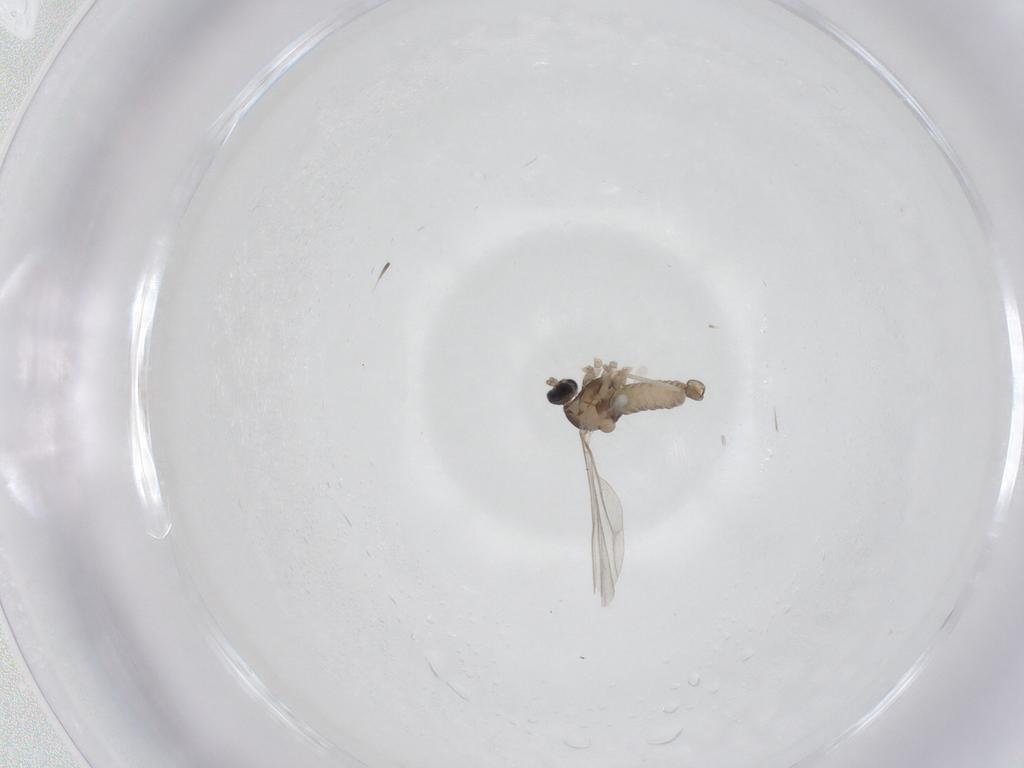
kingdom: Animalia
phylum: Arthropoda
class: Insecta
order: Diptera
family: Cecidomyiidae
